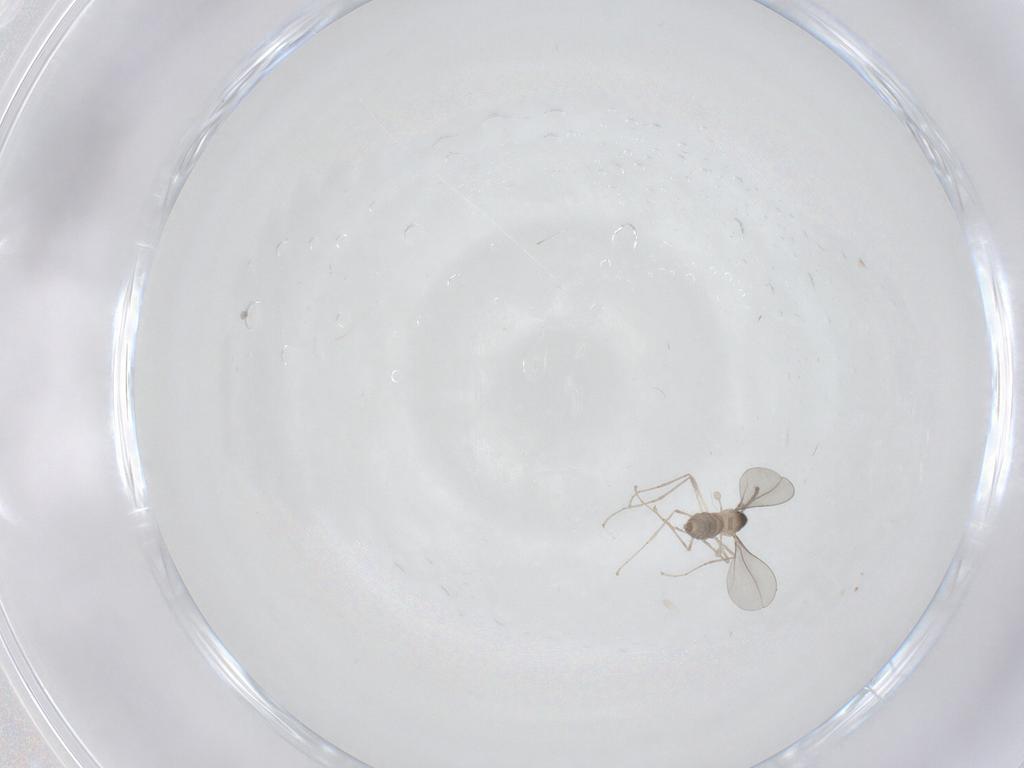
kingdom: Animalia
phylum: Arthropoda
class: Insecta
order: Diptera
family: Cecidomyiidae
